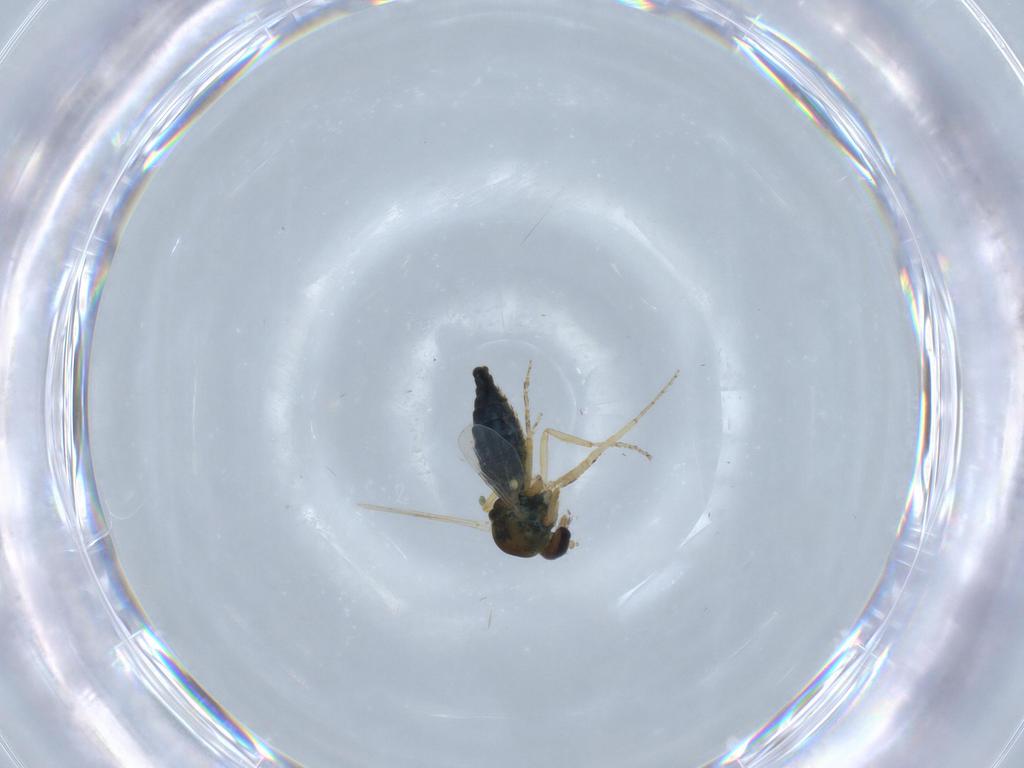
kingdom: Animalia
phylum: Arthropoda
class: Insecta
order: Diptera
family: Ceratopogonidae
